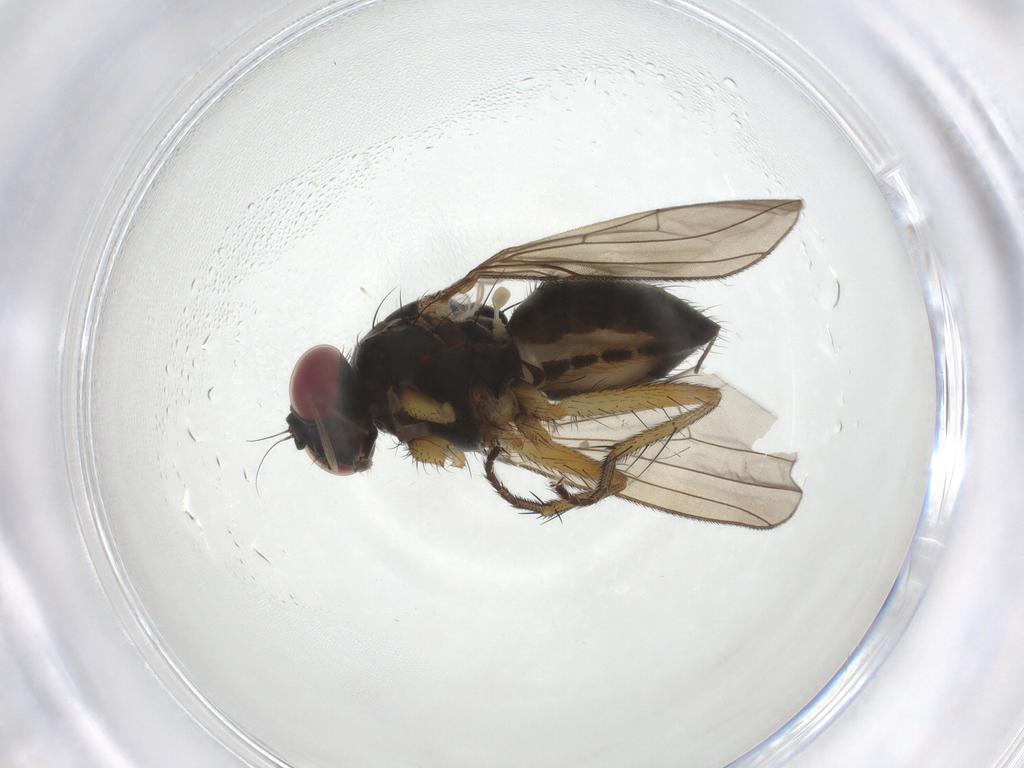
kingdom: Animalia
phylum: Arthropoda
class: Insecta
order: Diptera
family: Muscidae
